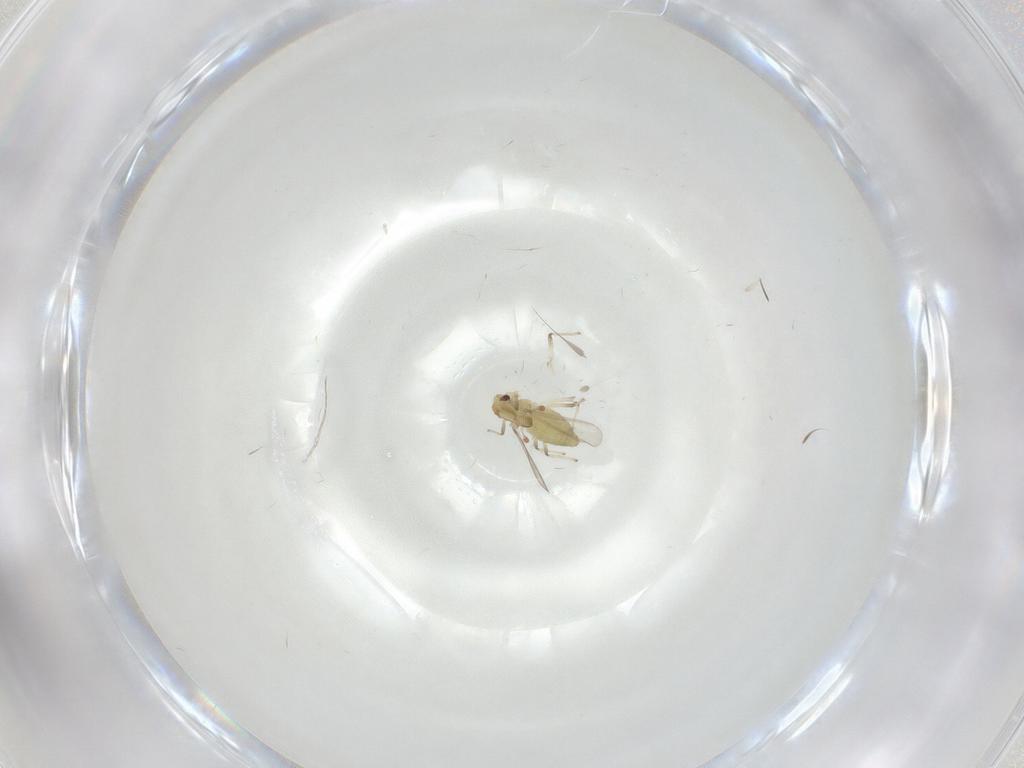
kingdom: Animalia
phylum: Arthropoda
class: Insecta
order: Diptera
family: Chironomidae
